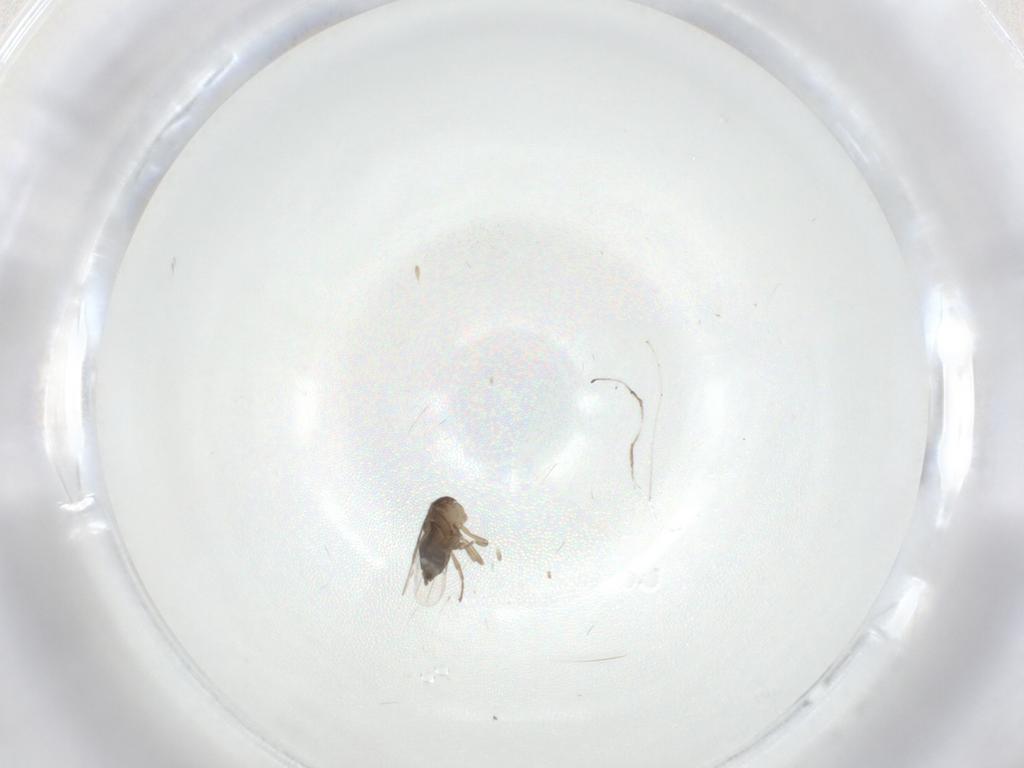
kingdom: Animalia
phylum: Arthropoda
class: Insecta
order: Diptera
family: Phoridae
